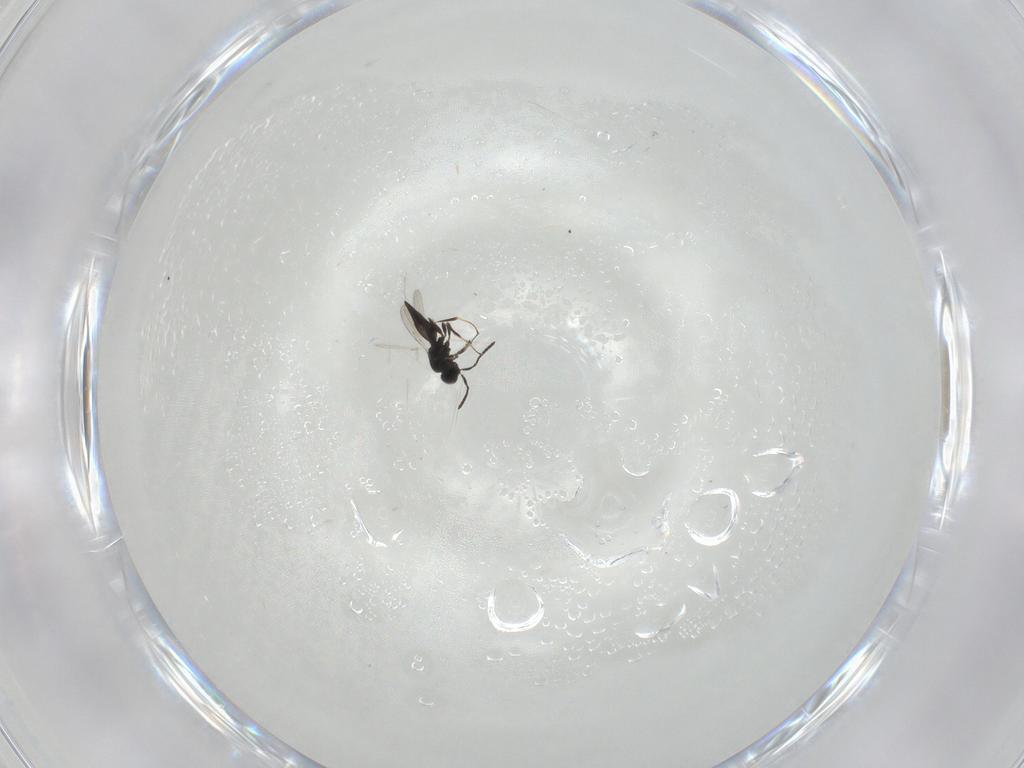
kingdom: Animalia
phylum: Arthropoda
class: Insecta
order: Hymenoptera
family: Scelionidae
